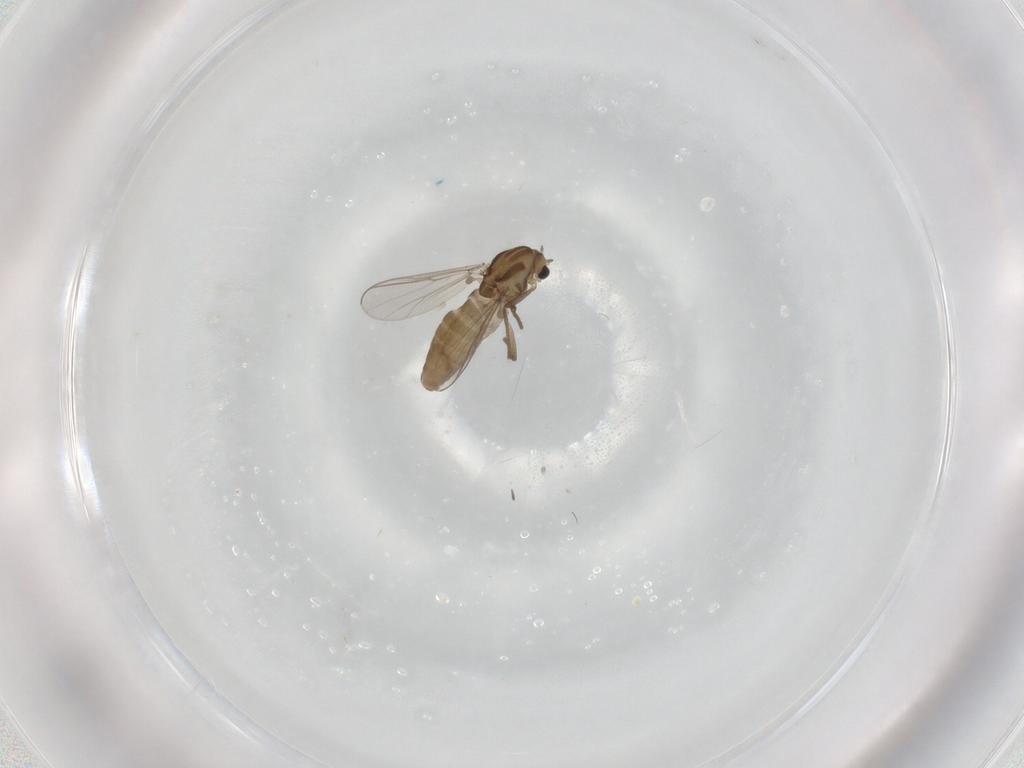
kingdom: Animalia
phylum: Arthropoda
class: Insecta
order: Diptera
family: Chironomidae
